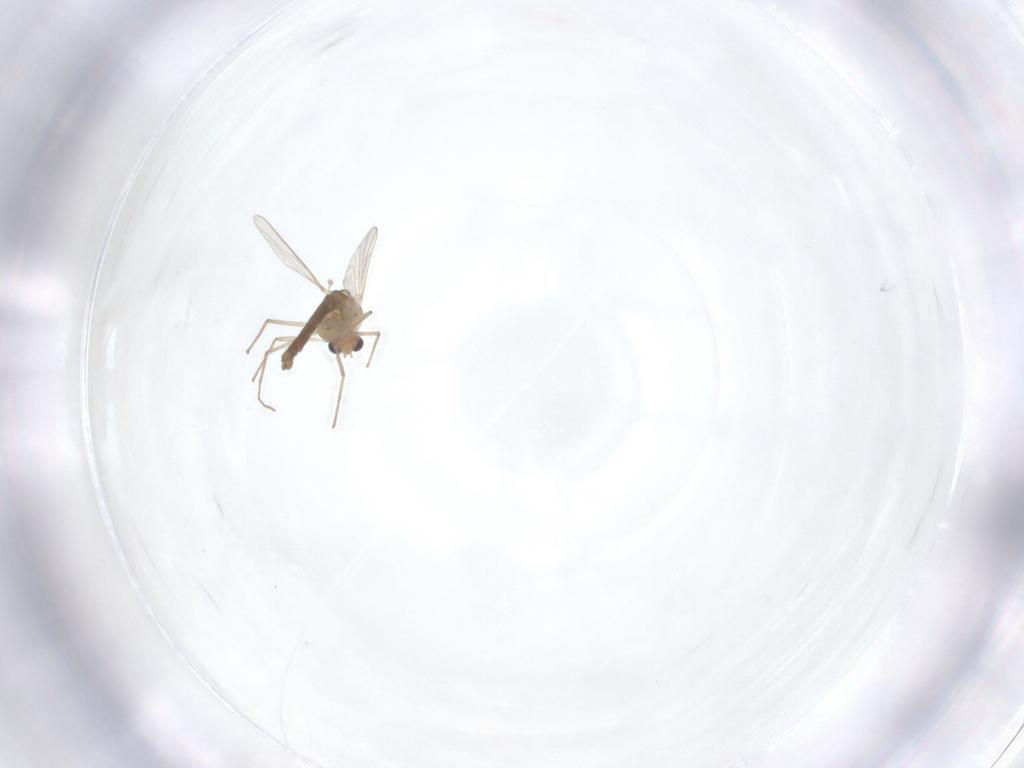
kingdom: Animalia
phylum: Arthropoda
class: Insecta
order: Diptera
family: Chironomidae
